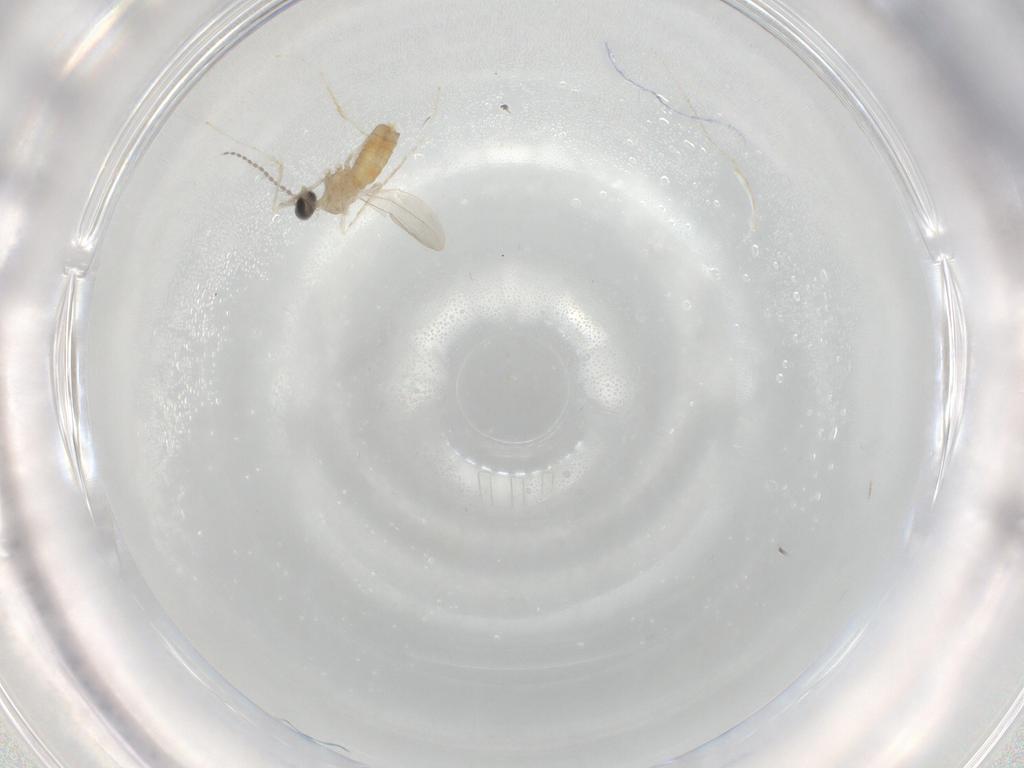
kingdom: Animalia
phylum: Arthropoda
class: Insecta
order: Diptera
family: Cecidomyiidae
